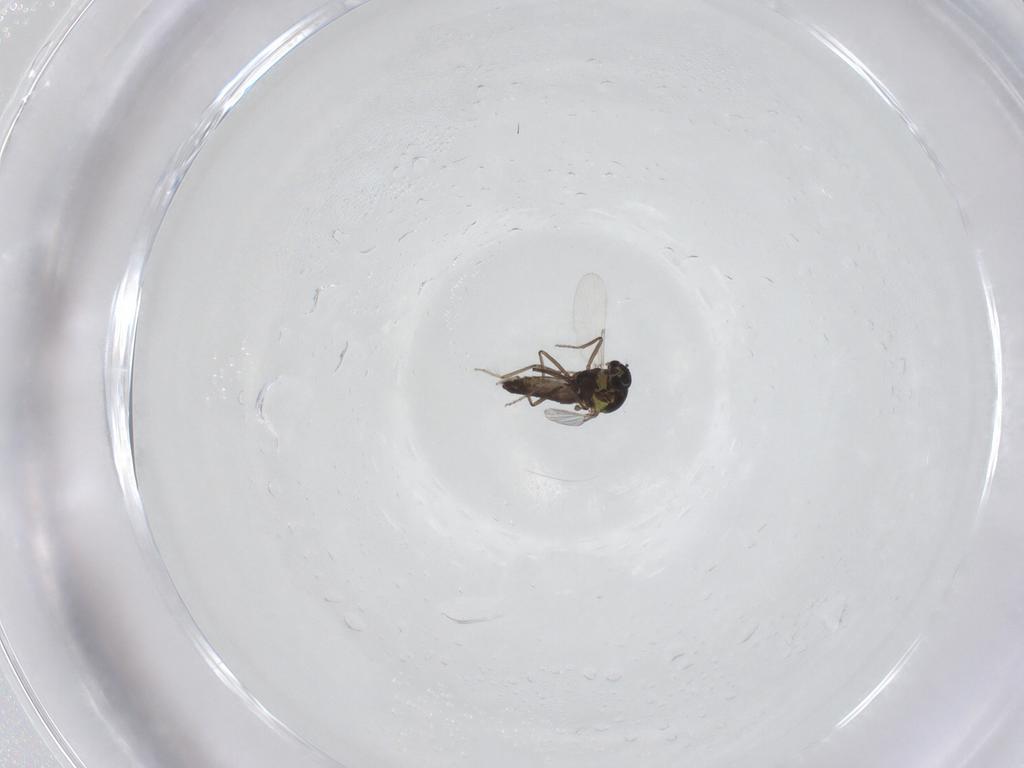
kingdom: Animalia
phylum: Arthropoda
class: Insecta
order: Diptera
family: Ceratopogonidae
